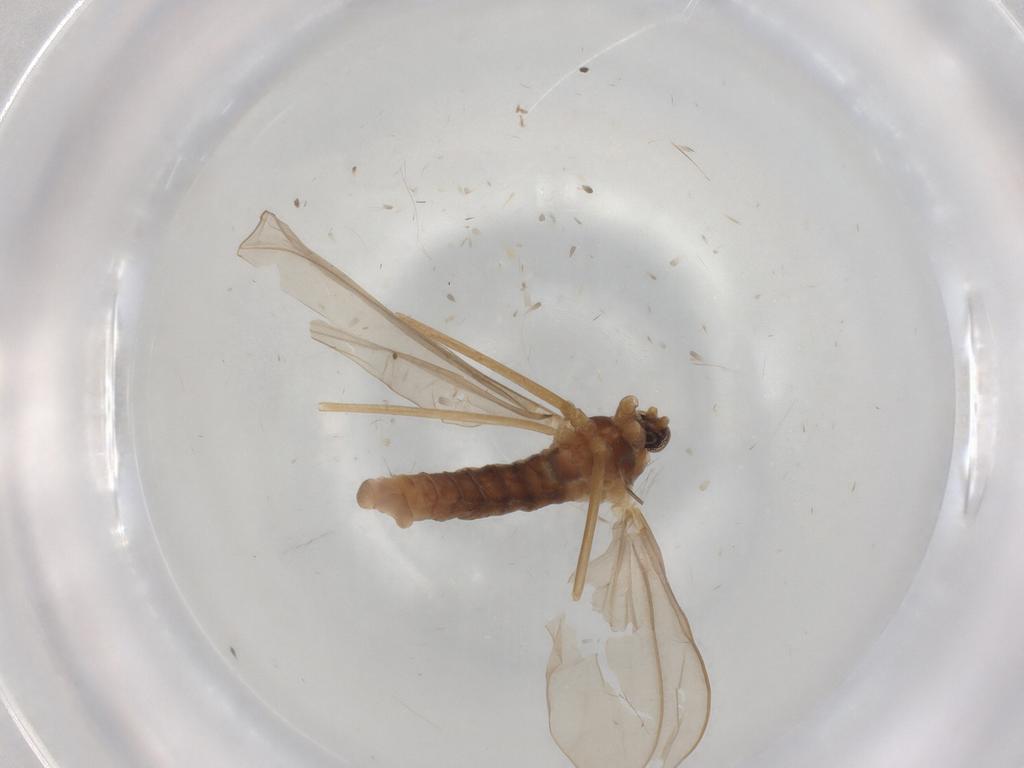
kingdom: Animalia
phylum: Arthropoda
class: Insecta
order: Diptera
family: Cecidomyiidae
